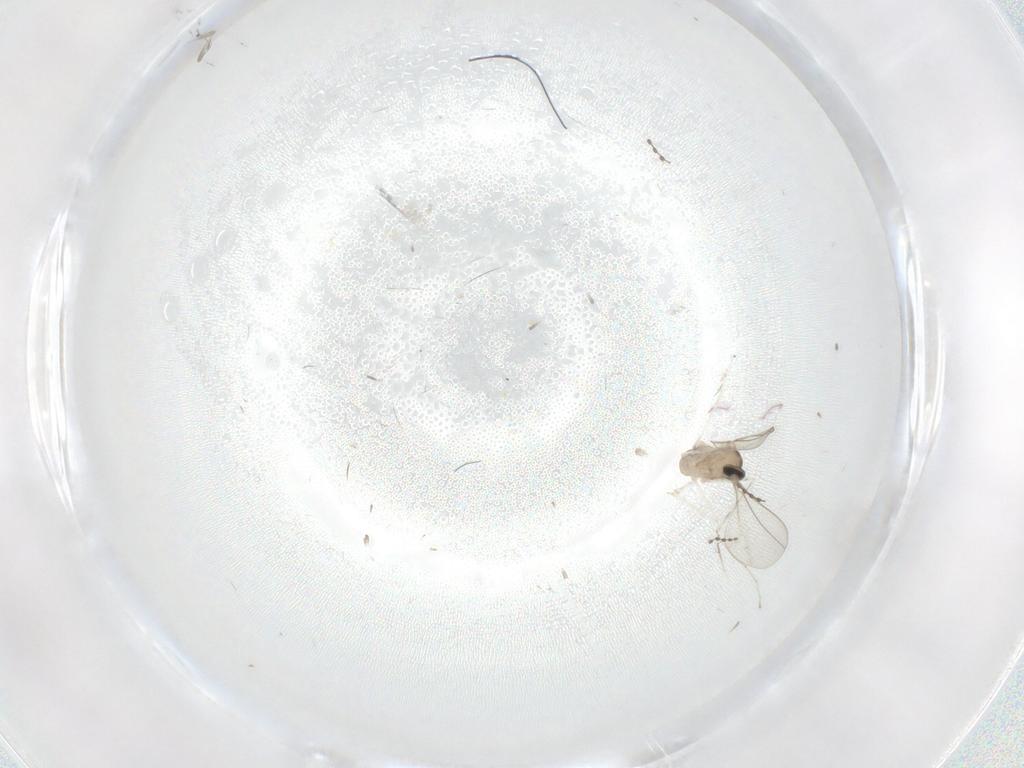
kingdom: Animalia
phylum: Arthropoda
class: Insecta
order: Diptera
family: Cecidomyiidae
